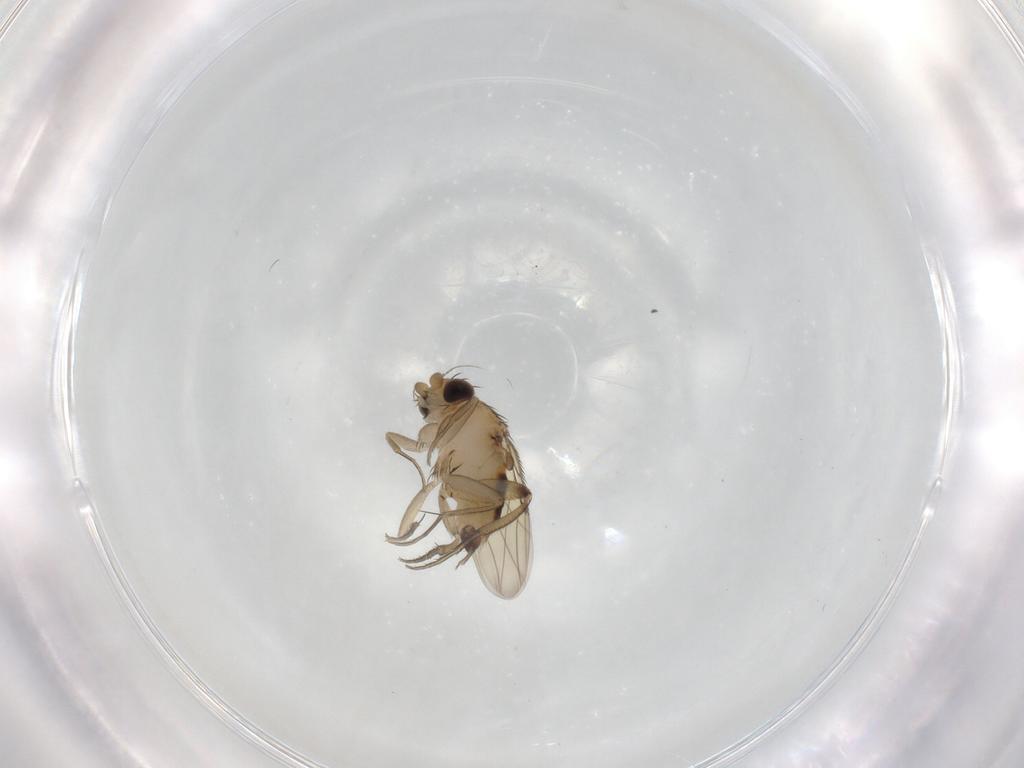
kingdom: Animalia
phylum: Arthropoda
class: Insecta
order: Diptera
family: Phoridae
